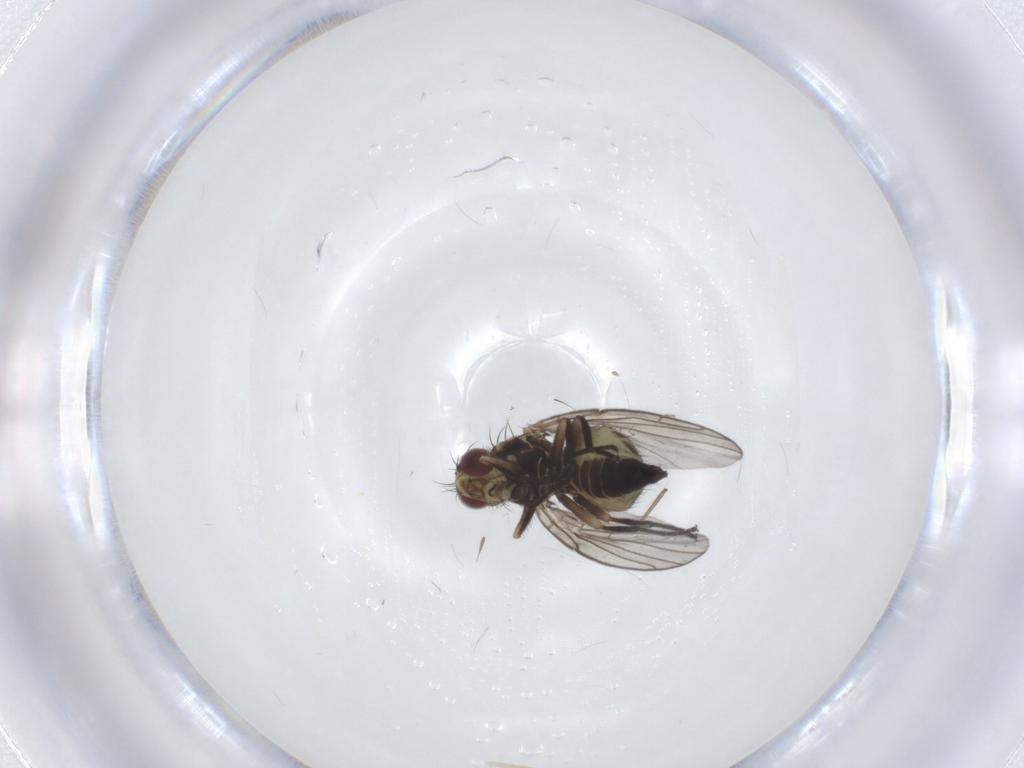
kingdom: Animalia
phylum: Arthropoda
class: Insecta
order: Diptera
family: Agromyzidae
